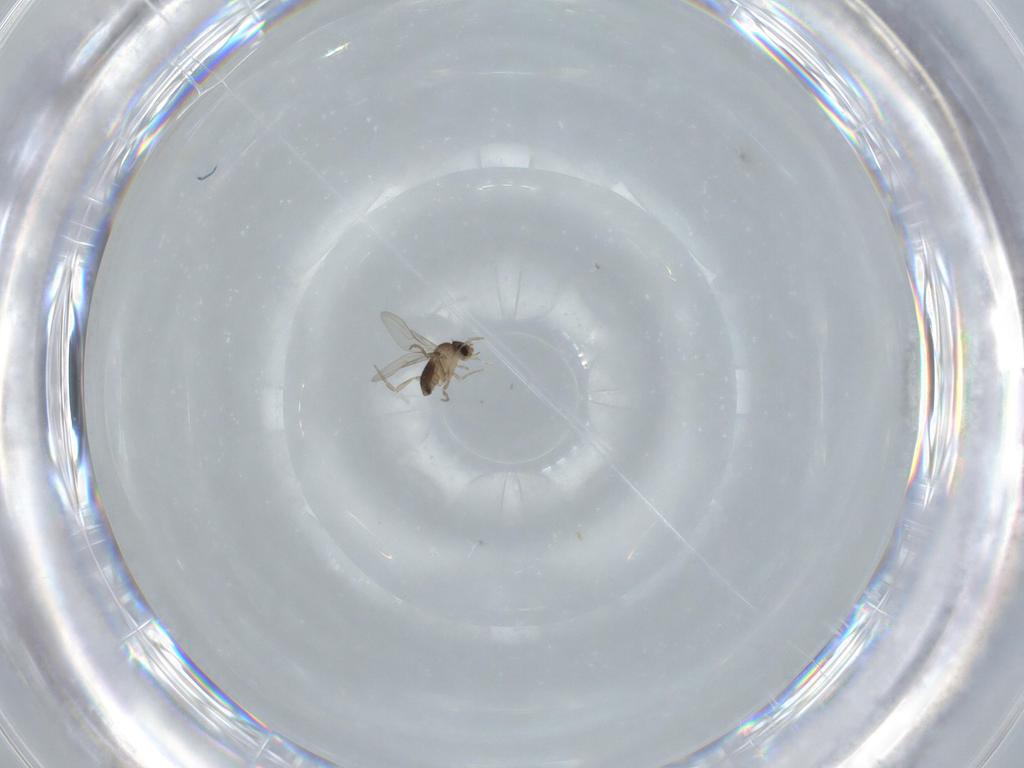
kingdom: Animalia
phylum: Arthropoda
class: Insecta
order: Diptera
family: Phoridae
